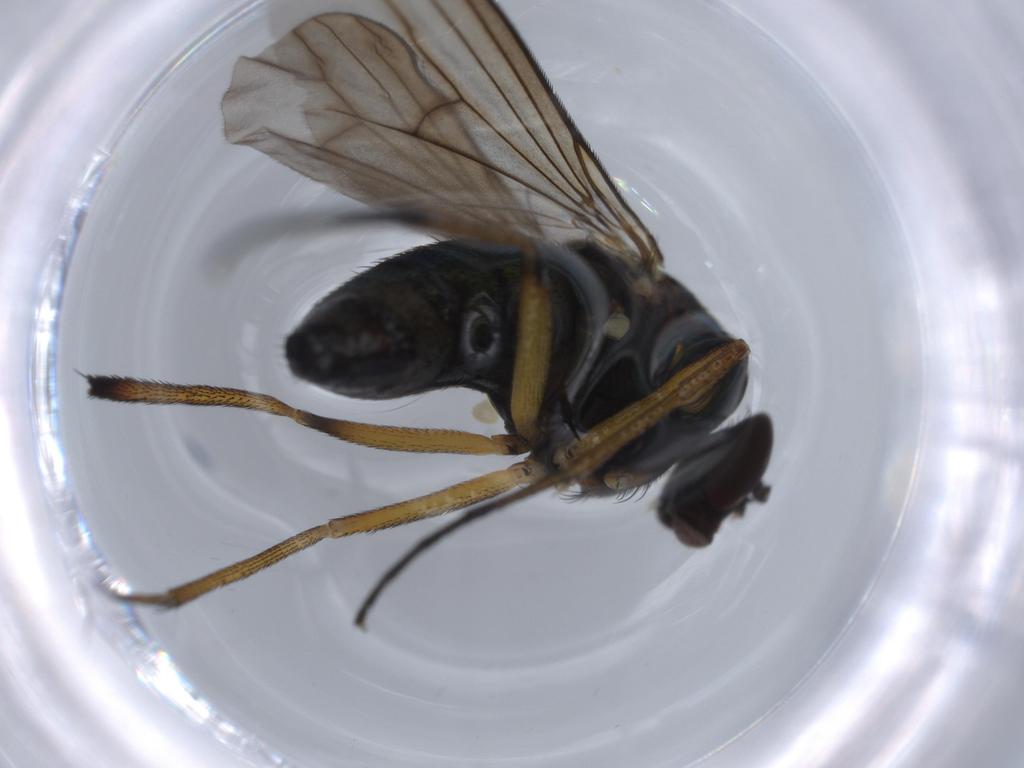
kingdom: Animalia
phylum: Arthropoda
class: Insecta
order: Diptera
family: Dolichopodidae
